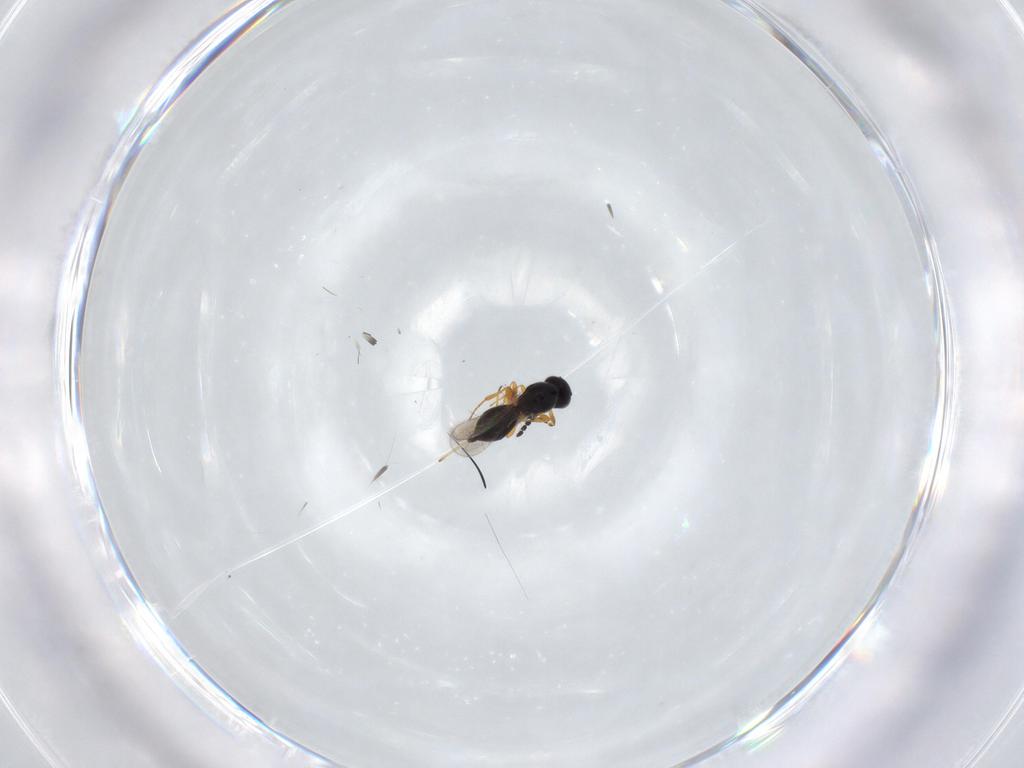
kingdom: Animalia
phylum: Arthropoda
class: Insecta
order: Hymenoptera
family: Platygastridae
